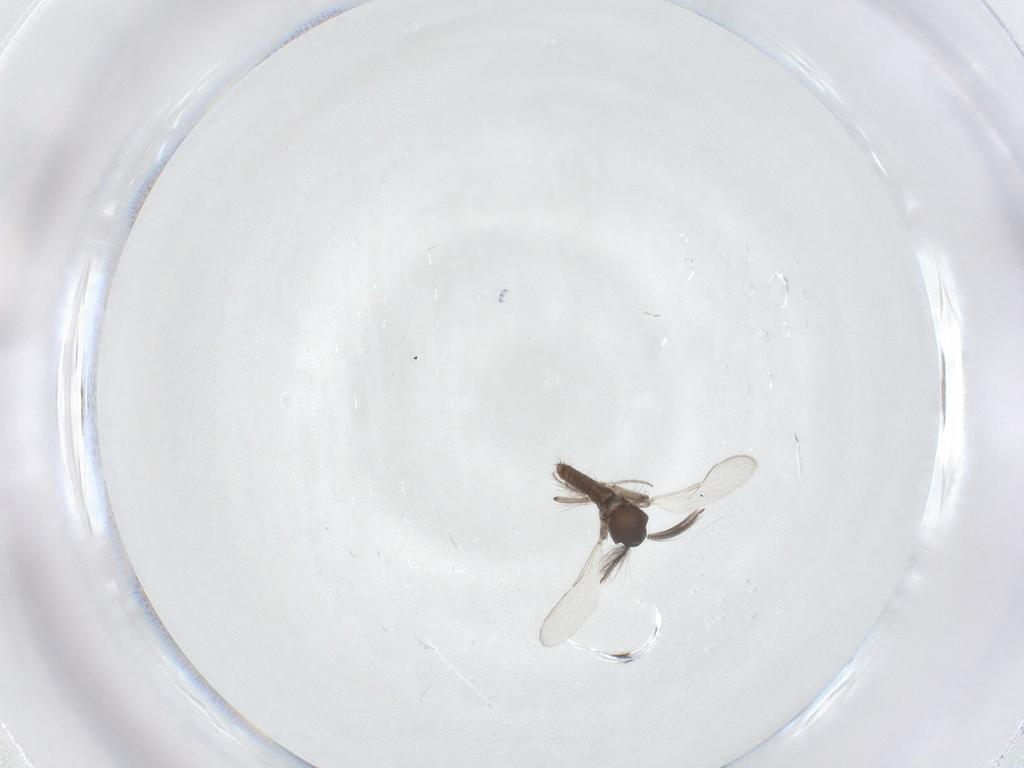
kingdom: Animalia
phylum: Arthropoda
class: Insecta
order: Diptera
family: Ceratopogonidae
